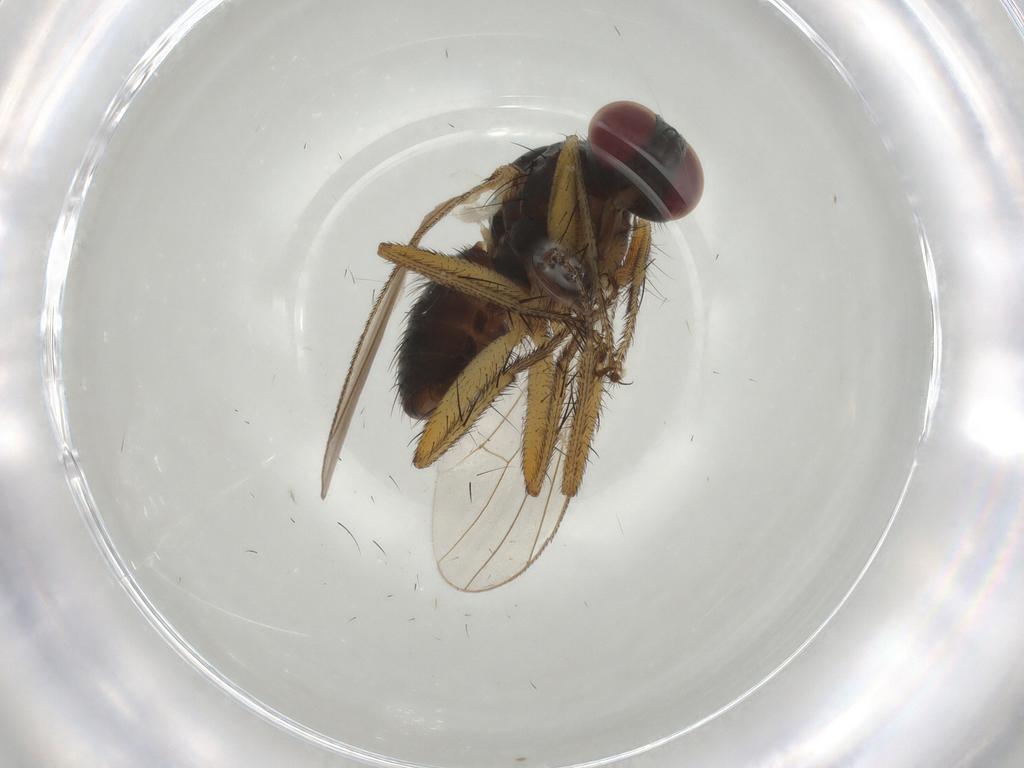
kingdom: Animalia
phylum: Arthropoda
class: Insecta
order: Diptera
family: Muscidae
